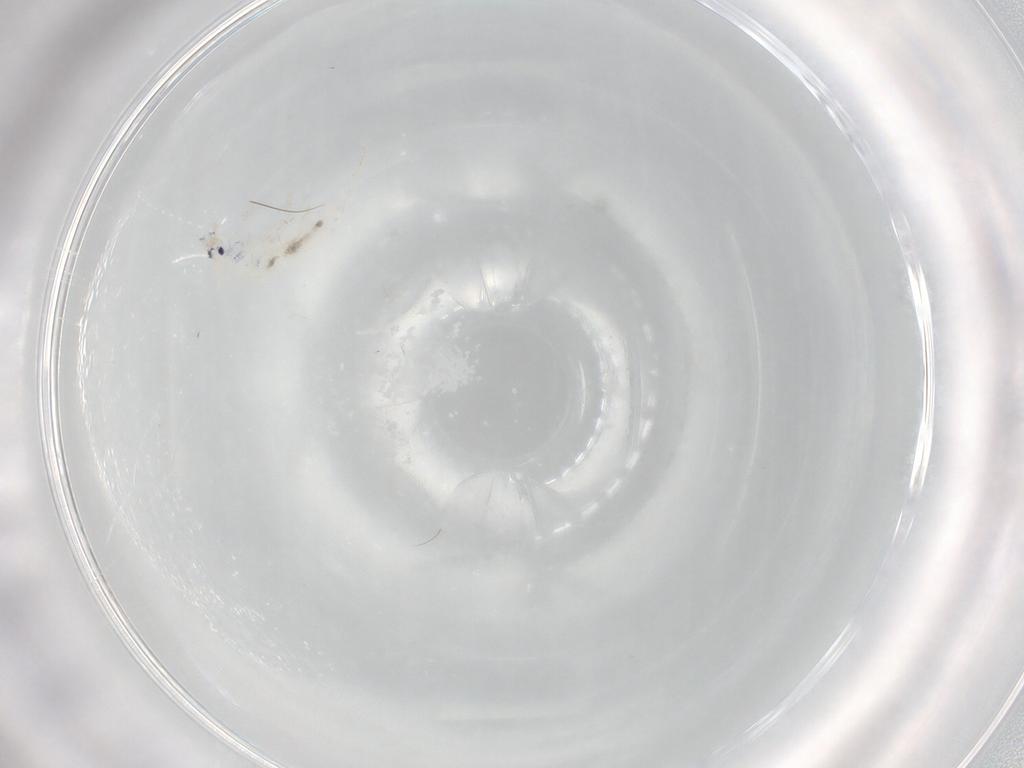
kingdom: Animalia
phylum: Arthropoda
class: Collembola
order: Entomobryomorpha
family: Entomobryidae
